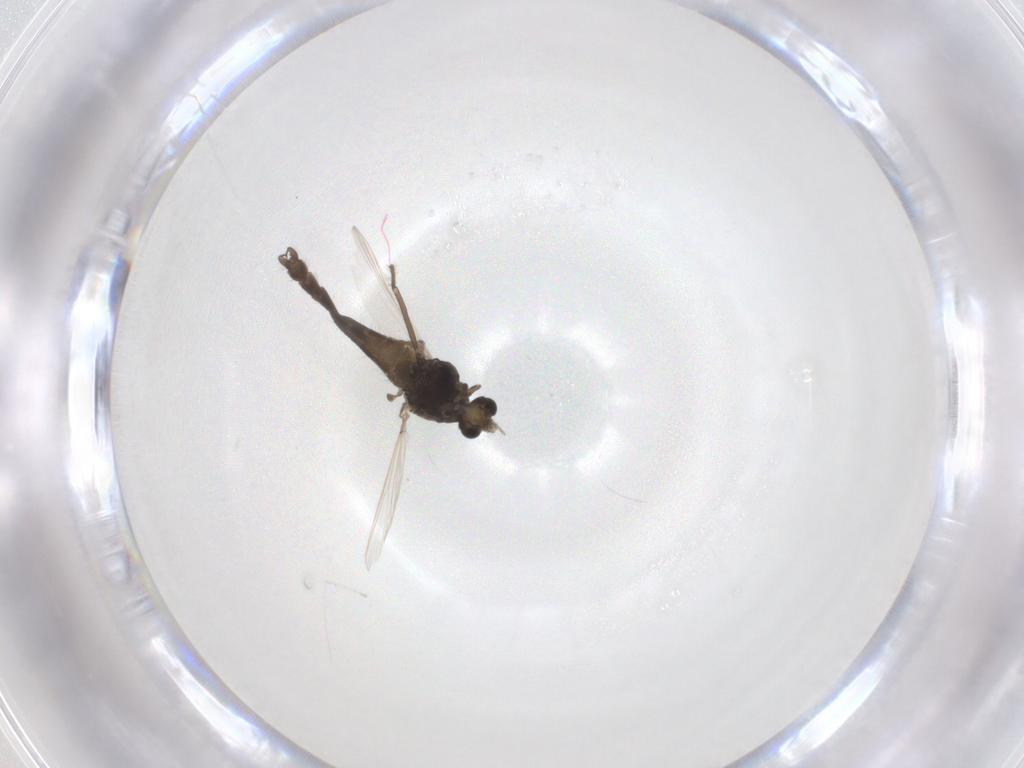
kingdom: Animalia
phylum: Arthropoda
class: Insecta
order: Diptera
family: Chironomidae
